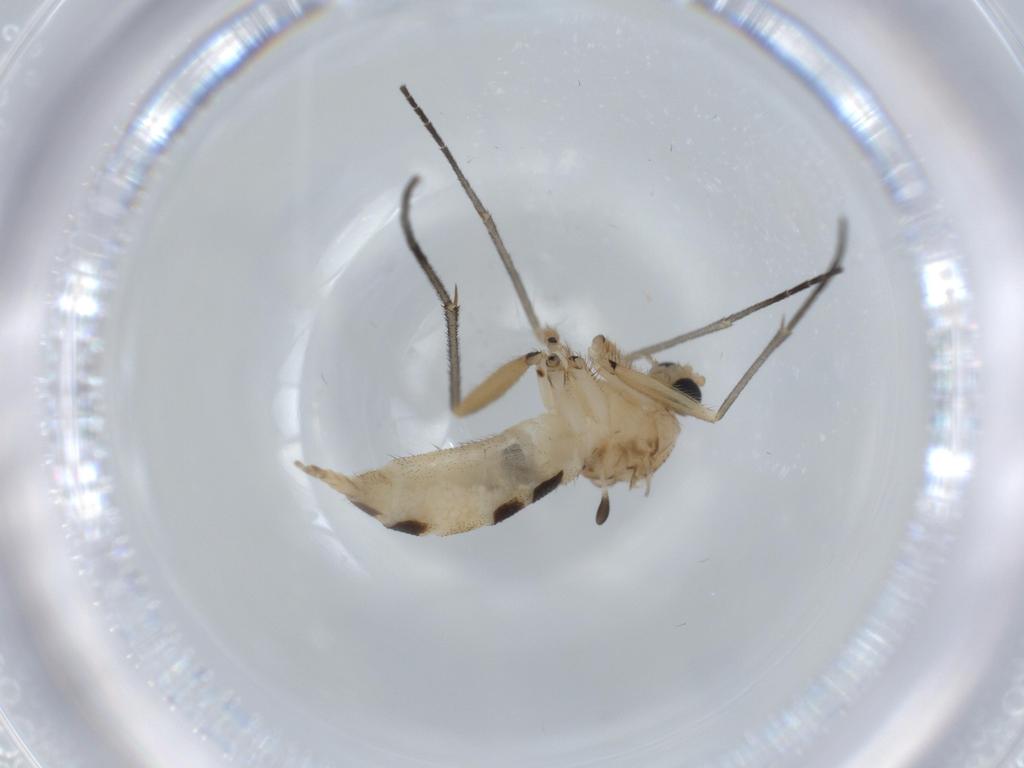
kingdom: Animalia
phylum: Arthropoda
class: Insecta
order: Diptera
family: Sciaridae
